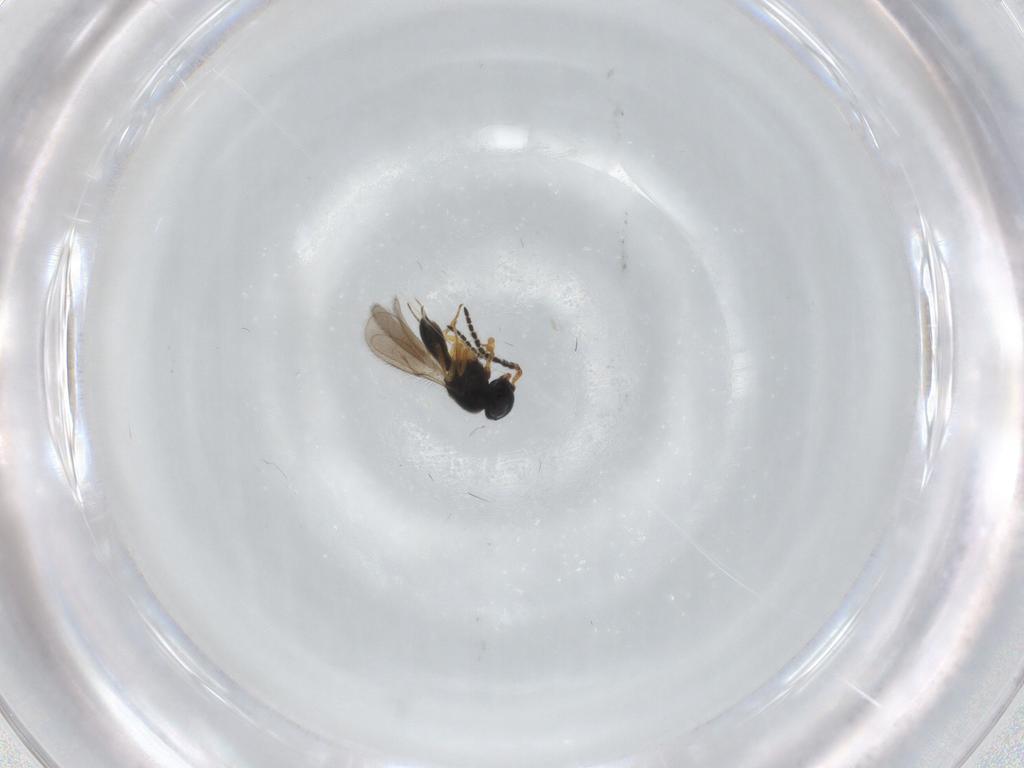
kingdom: Animalia
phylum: Arthropoda
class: Insecta
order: Hymenoptera
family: Scelionidae
